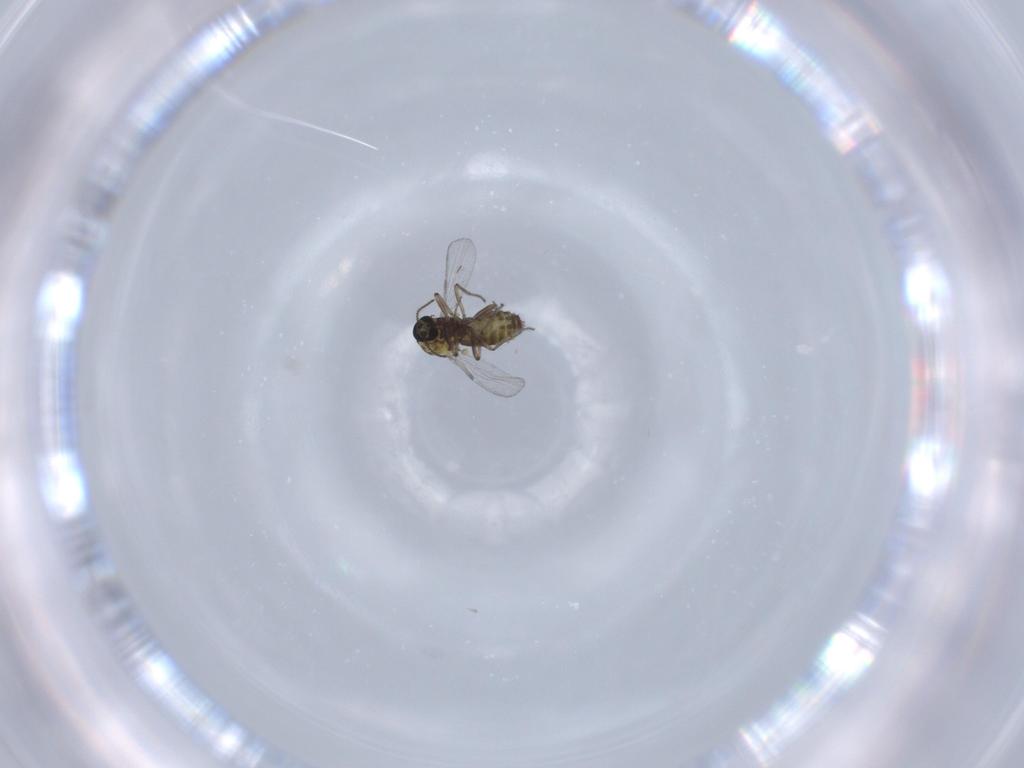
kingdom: Animalia
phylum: Arthropoda
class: Insecta
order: Diptera
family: Ceratopogonidae
